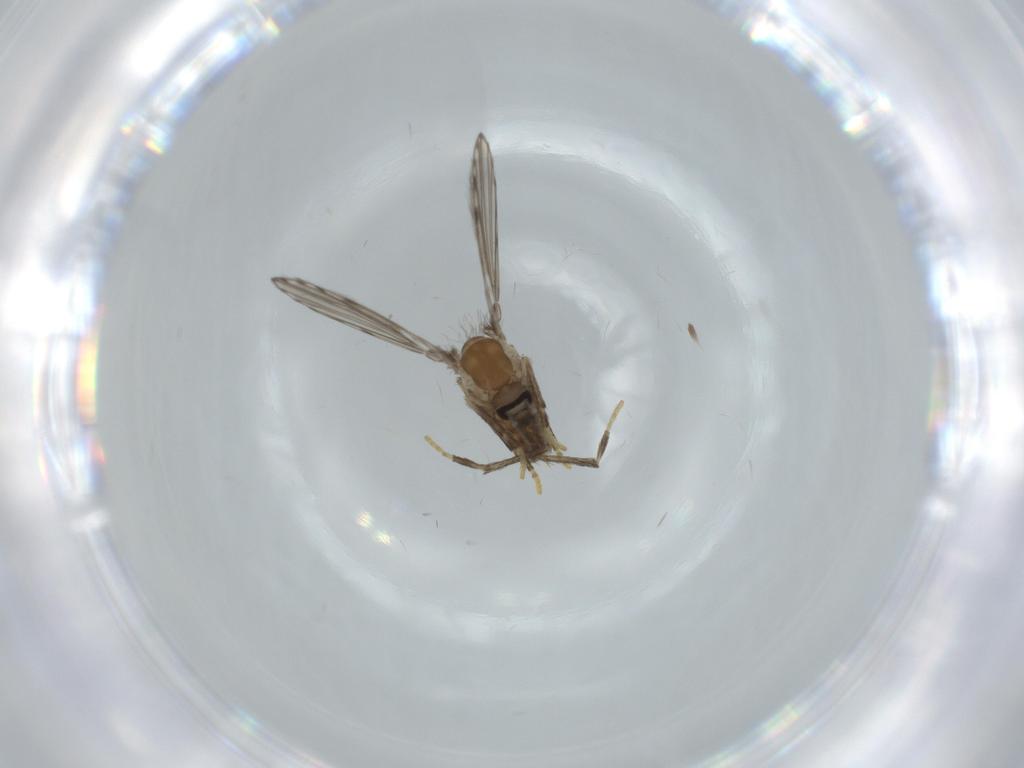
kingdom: Animalia
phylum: Arthropoda
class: Insecta
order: Diptera
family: Psychodidae
